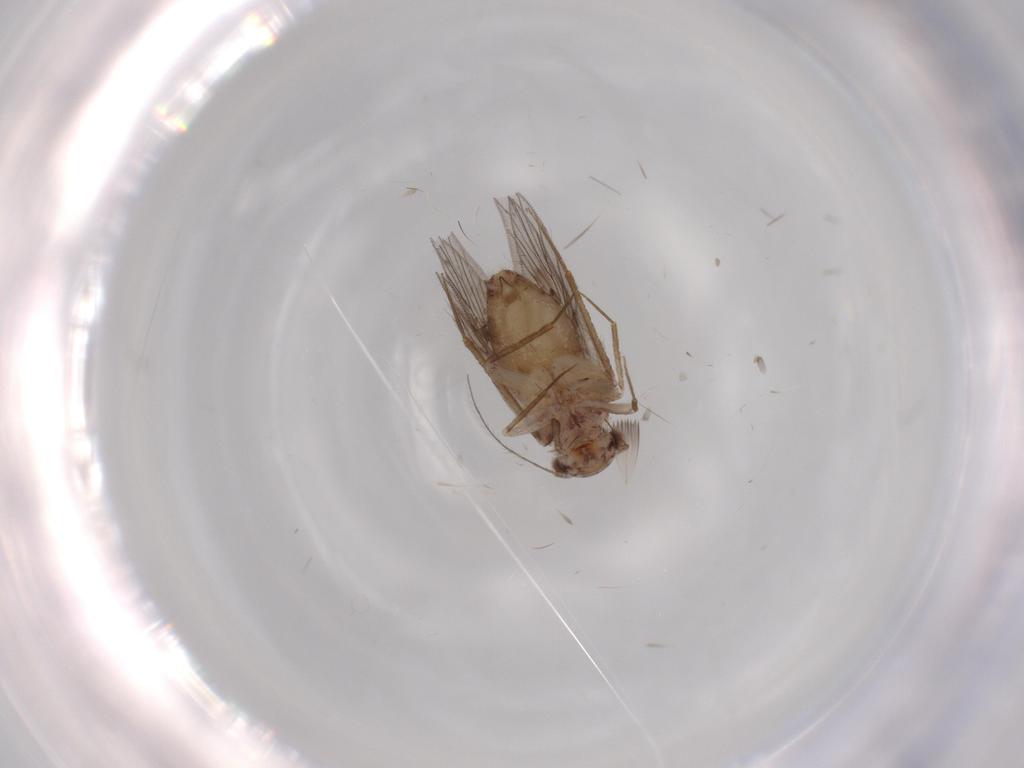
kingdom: Animalia
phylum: Arthropoda
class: Insecta
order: Psocodea
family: Lepidopsocidae
